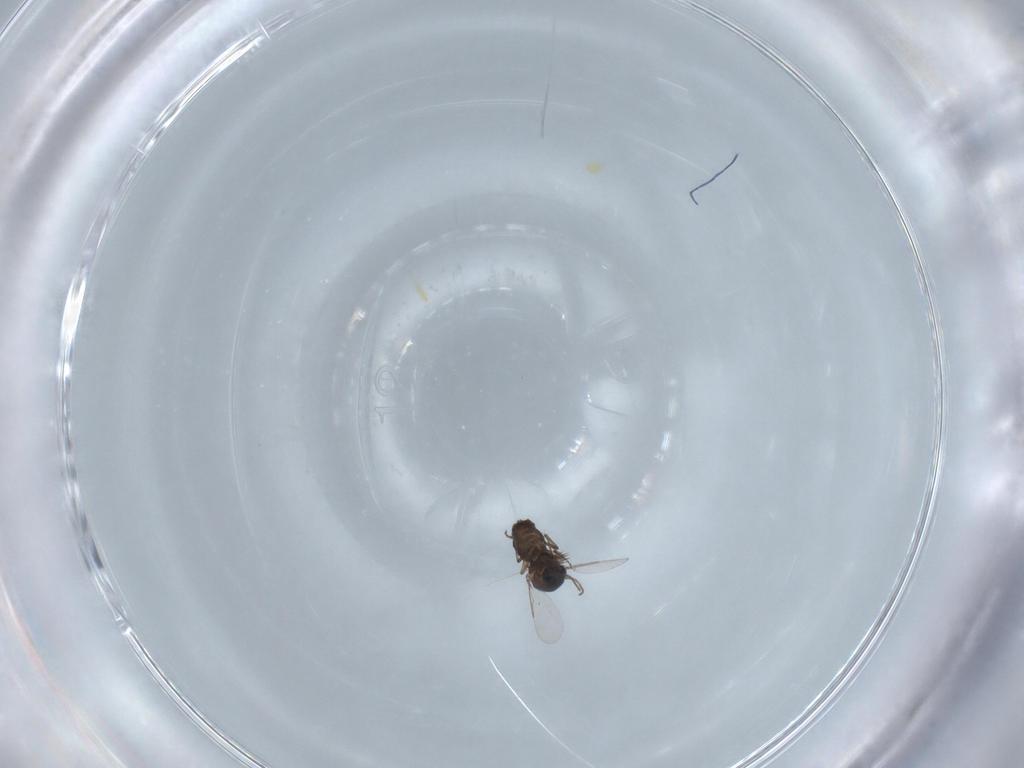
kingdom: Animalia
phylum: Arthropoda
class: Insecta
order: Diptera
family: Ceratopogonidae
